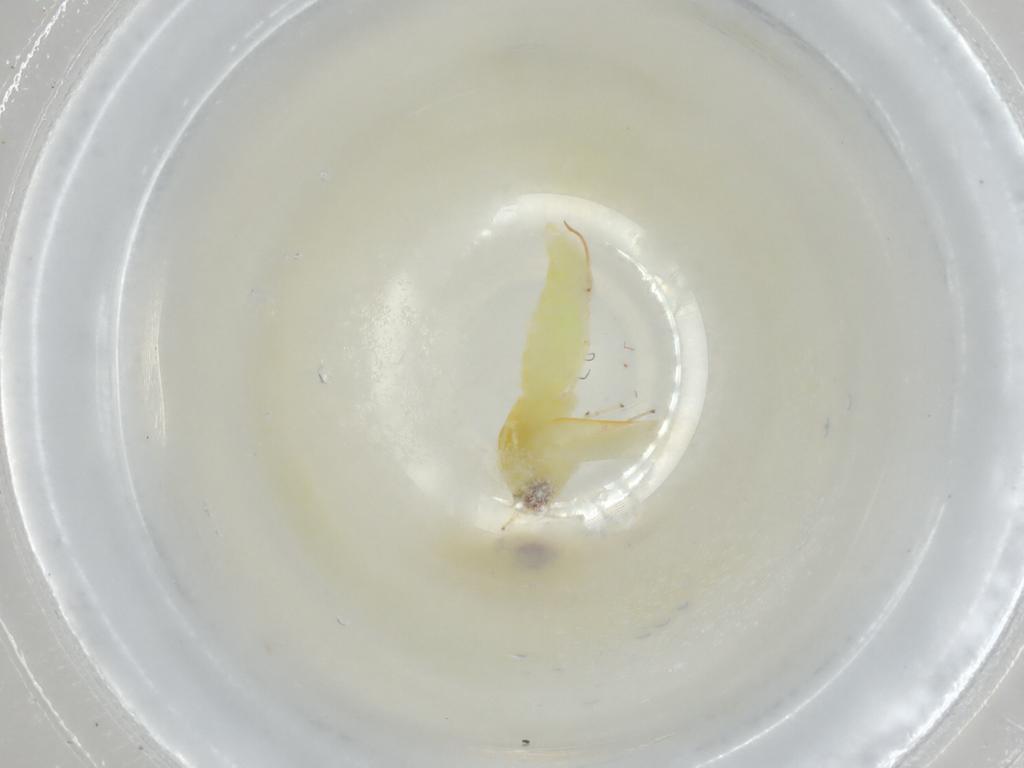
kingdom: Animalia
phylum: Arthropoda
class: Insecta
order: Hemiptera
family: Cicadellidae
